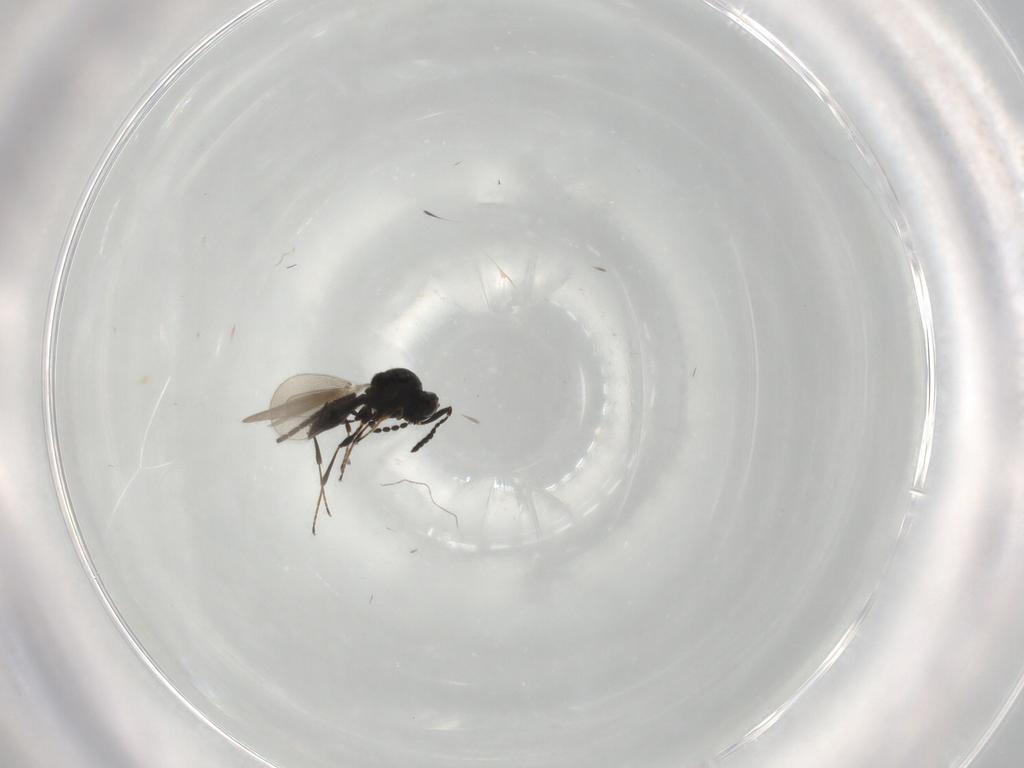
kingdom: Animalia
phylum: Arthropoda
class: Insecta
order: Hymenoptera
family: Platygastridae
